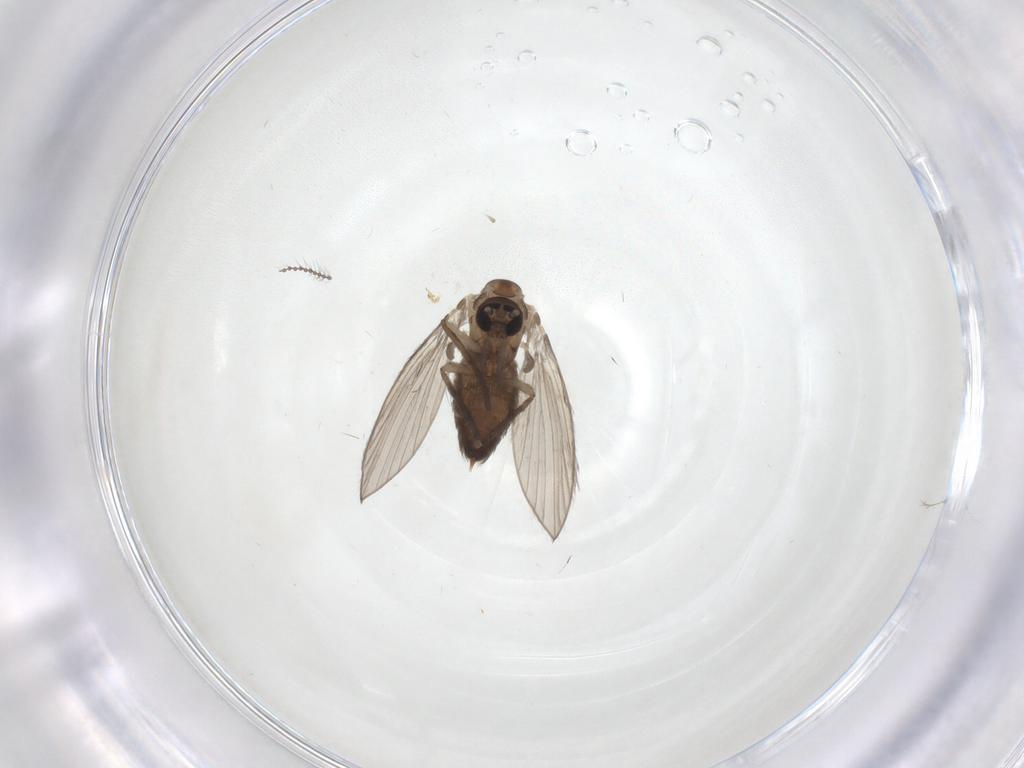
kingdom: Animalia
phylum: Arthropoda
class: Insecta
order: Diptera
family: Psychodidae
